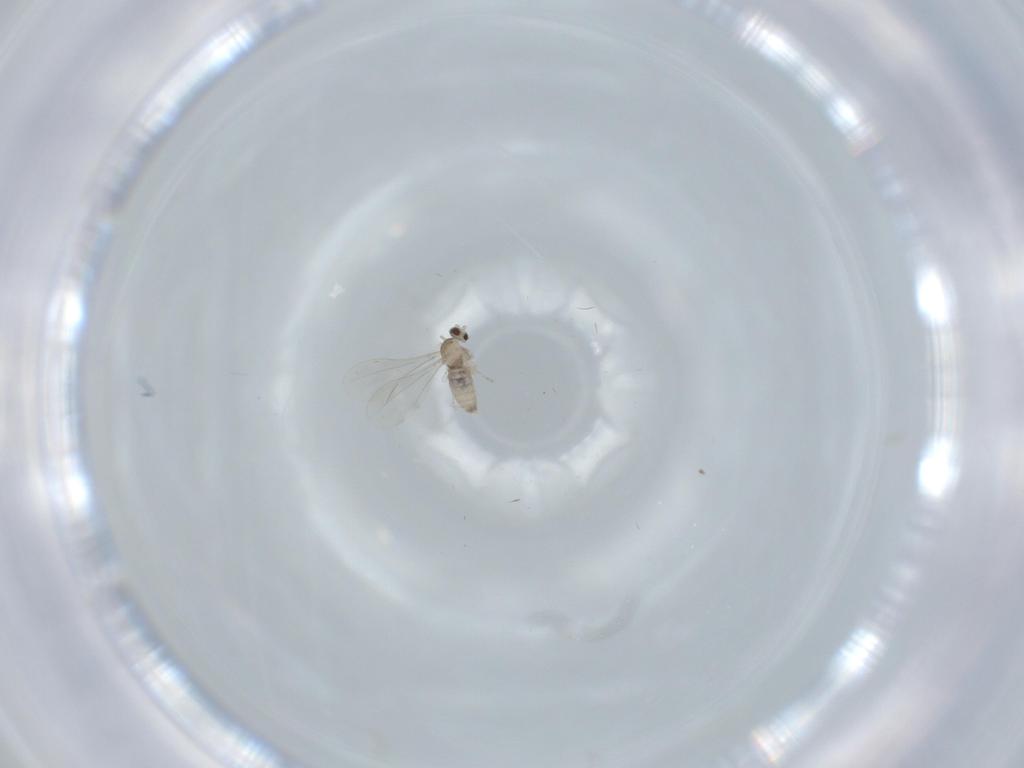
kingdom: Animalia
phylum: Arthropoda
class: Insecta
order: Diptera
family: Cecidomyiidae
